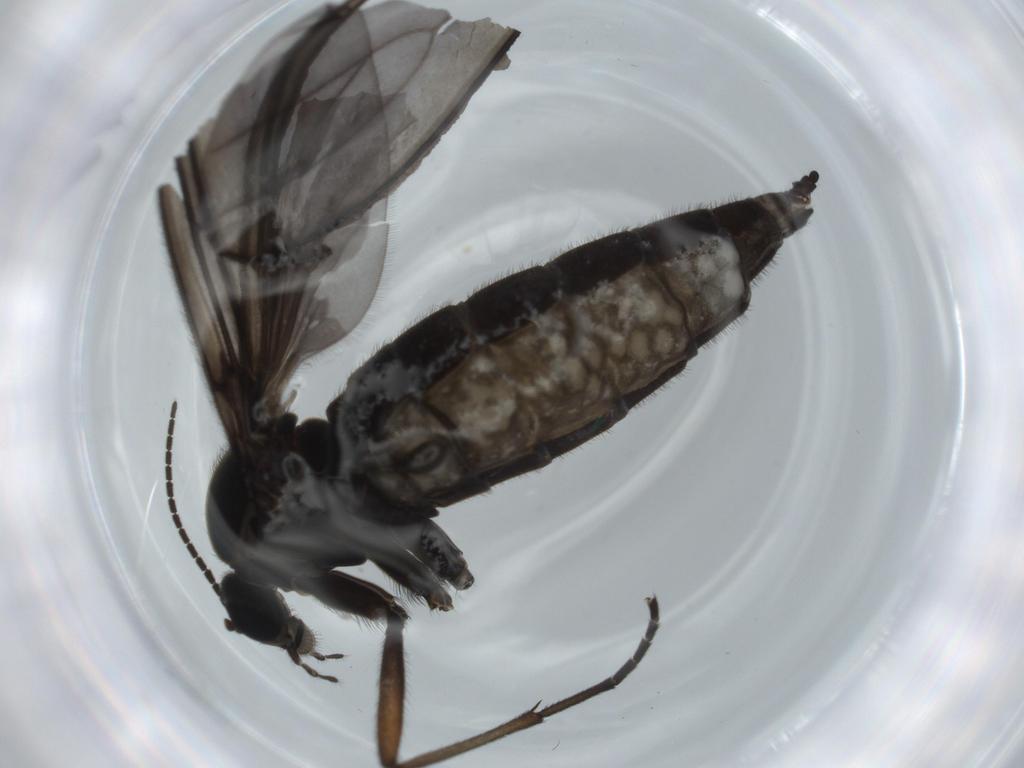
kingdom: Animalia
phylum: Arthropoda
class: Insecta
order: Diptera
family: Sciaridae
